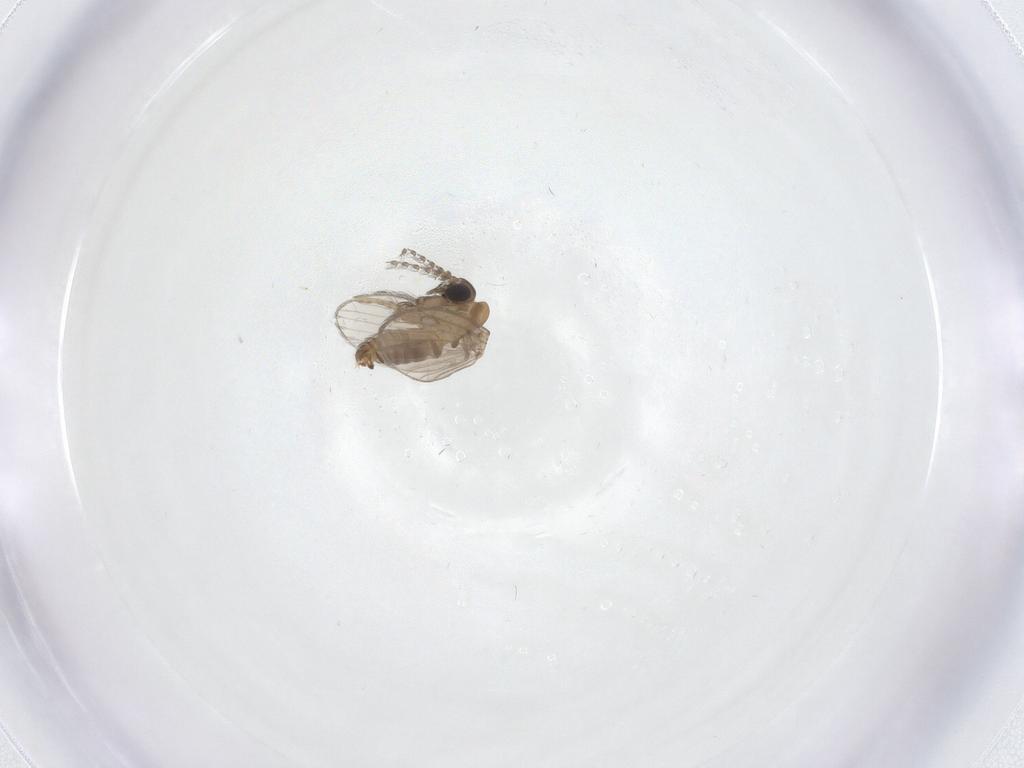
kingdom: Animalia
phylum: Arthropoda
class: Insecta
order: Diptera
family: Psychodidae
